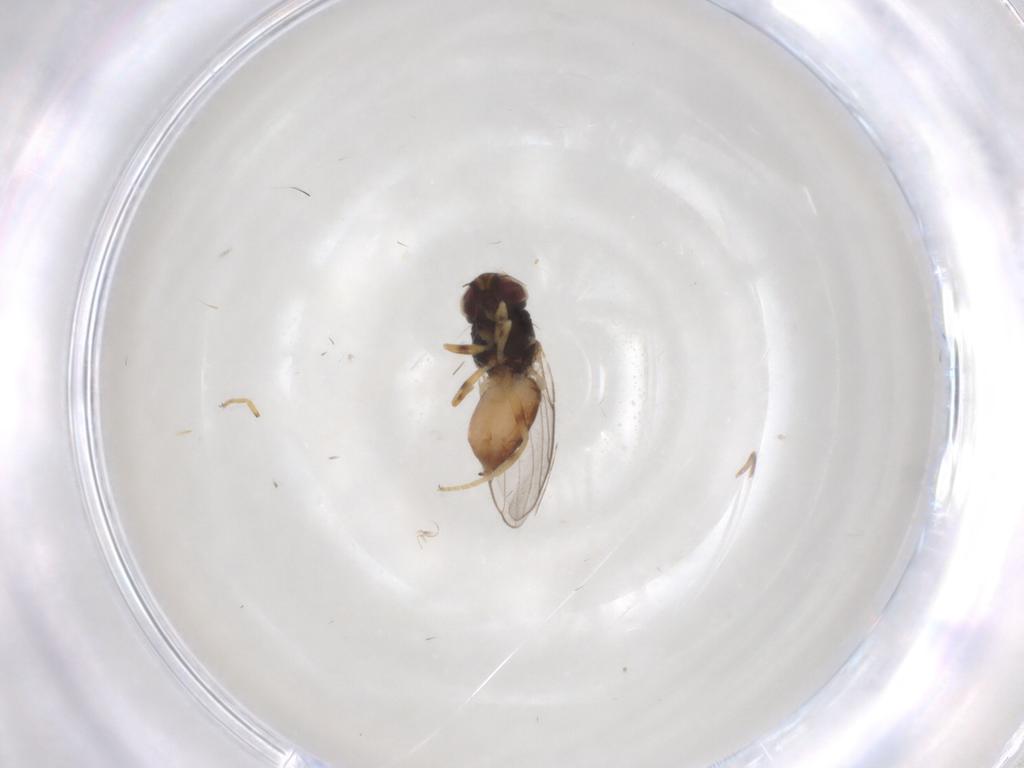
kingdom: Animalia
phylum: Arthropoda
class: Insecta
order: Diptera
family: Chloropidae
